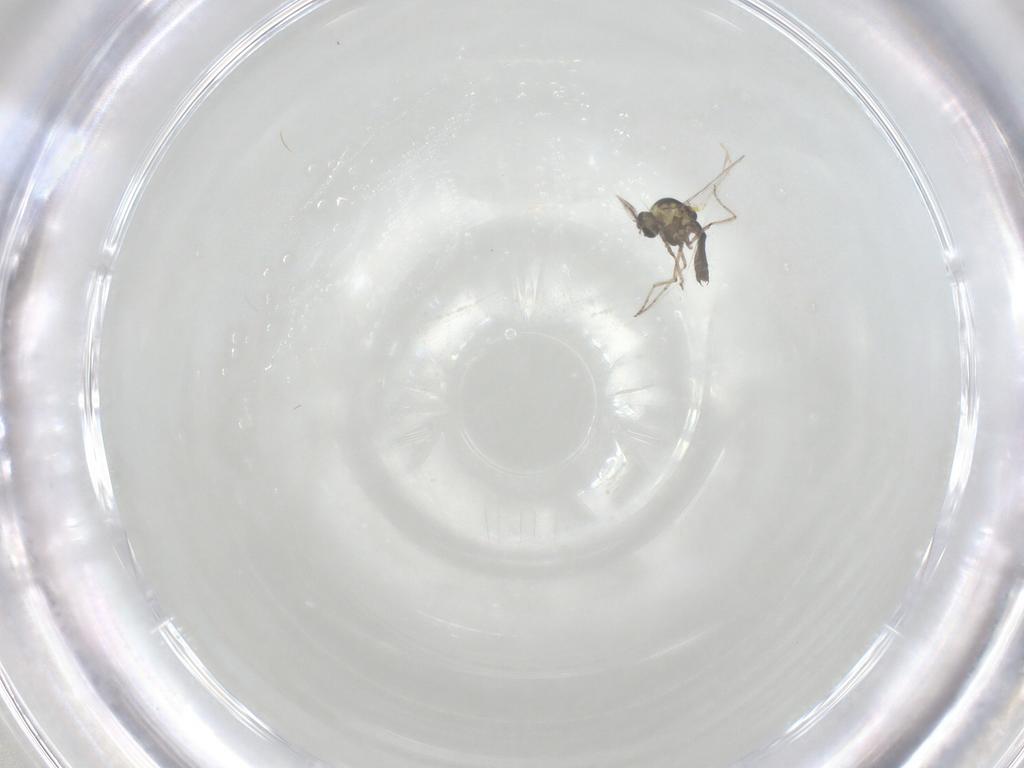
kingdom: Animalia
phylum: Arthropoda
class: Insecta
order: Diptera
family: Ceratopogonidae
